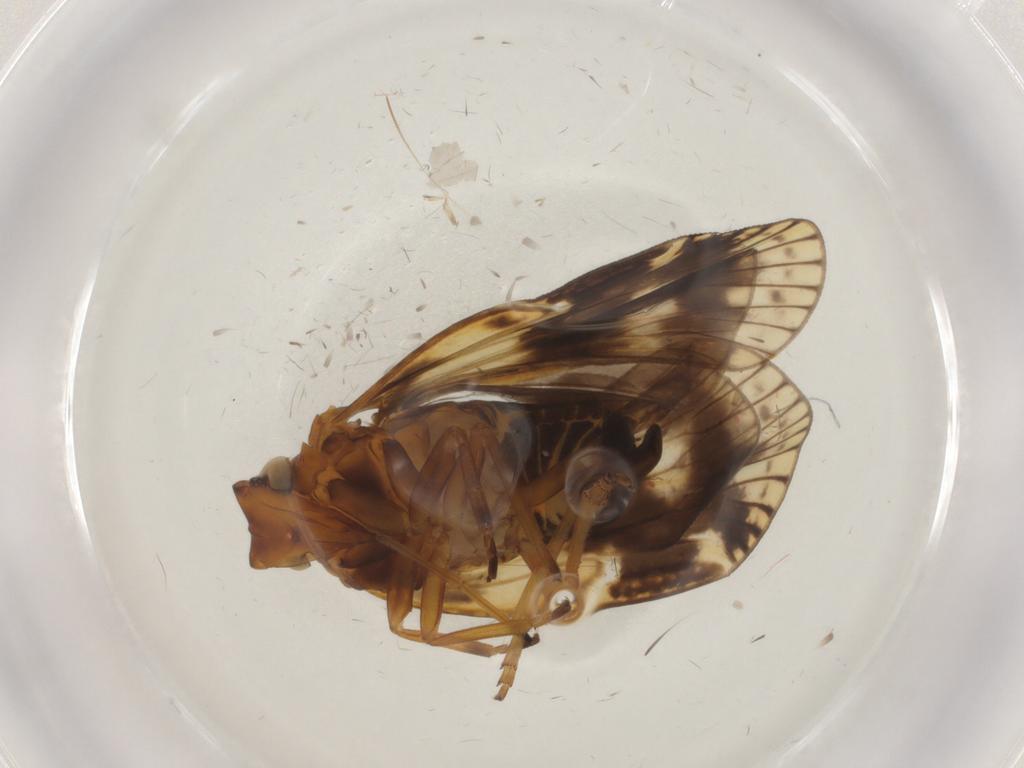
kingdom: Animalia
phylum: Arthropoda
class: Insecta
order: Hemiptera
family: Cixiidae
